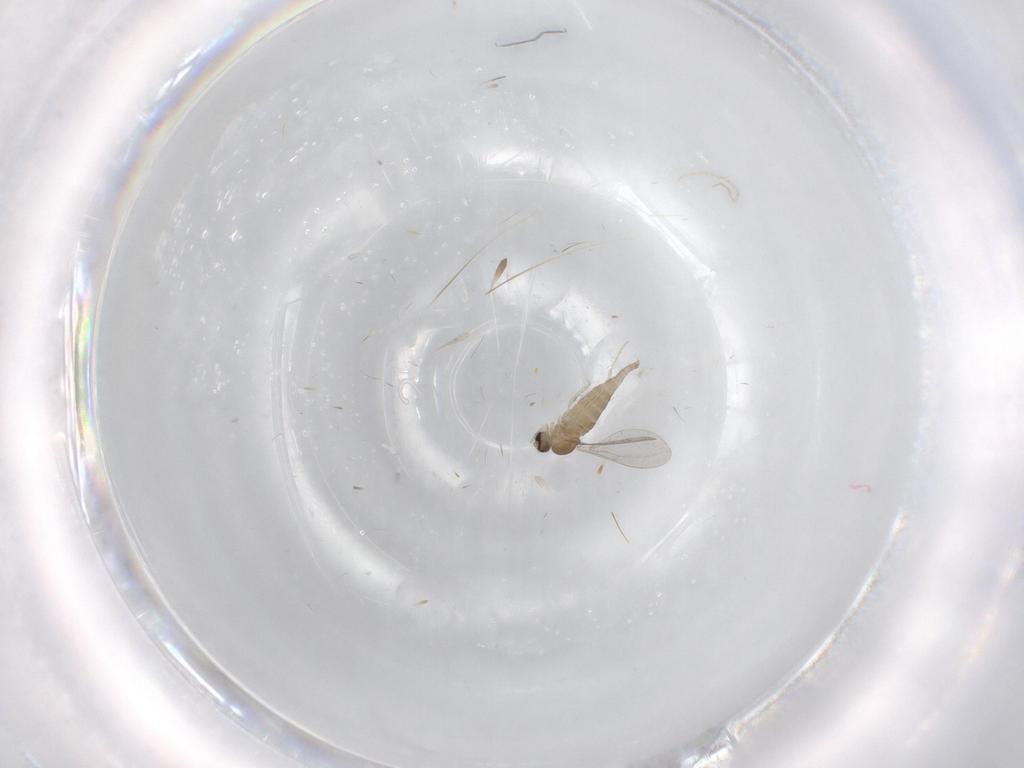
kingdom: Animalia
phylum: Arthropoda
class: Insecta
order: Diptera
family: Cecidomyiidae
